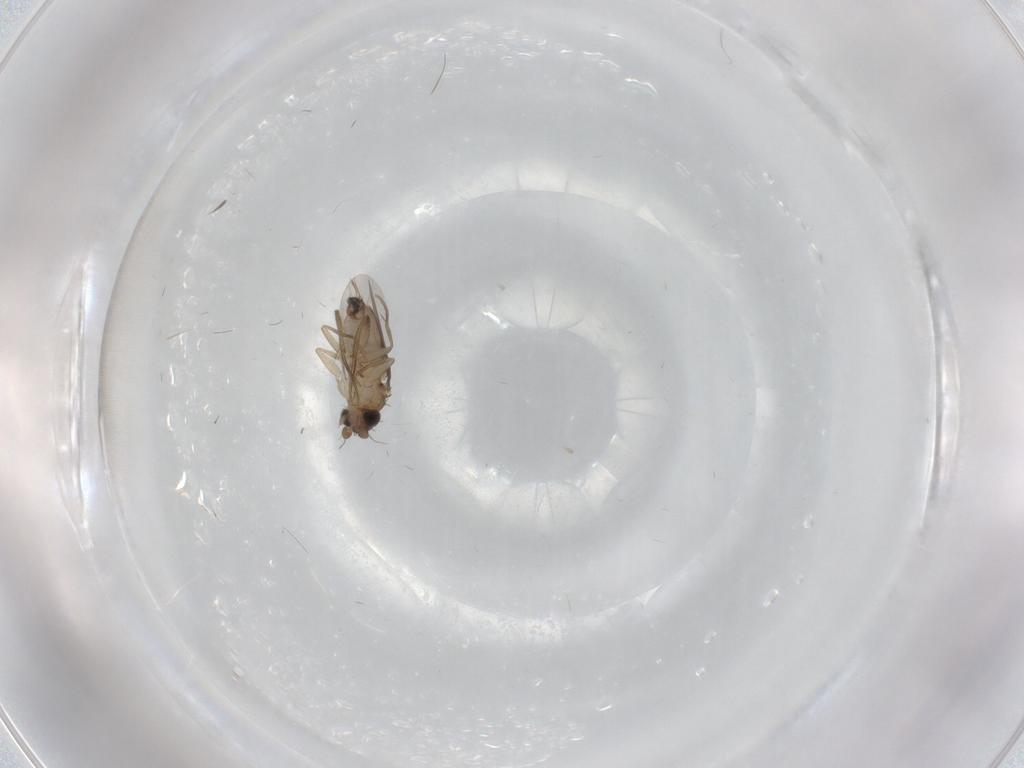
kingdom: Animalia
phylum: Arthropoda
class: Insecta
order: Diptera
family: Phoridae
